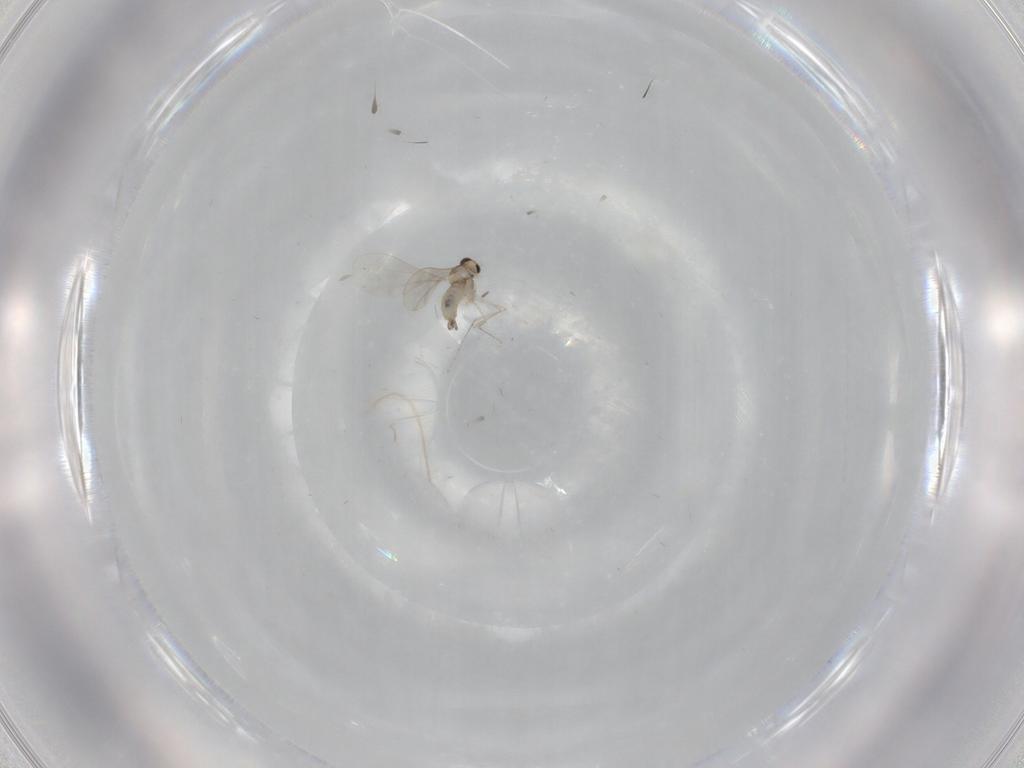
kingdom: Animalia
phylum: Arthropoda
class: Insecta
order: Diptera
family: Cecidomyiidae
